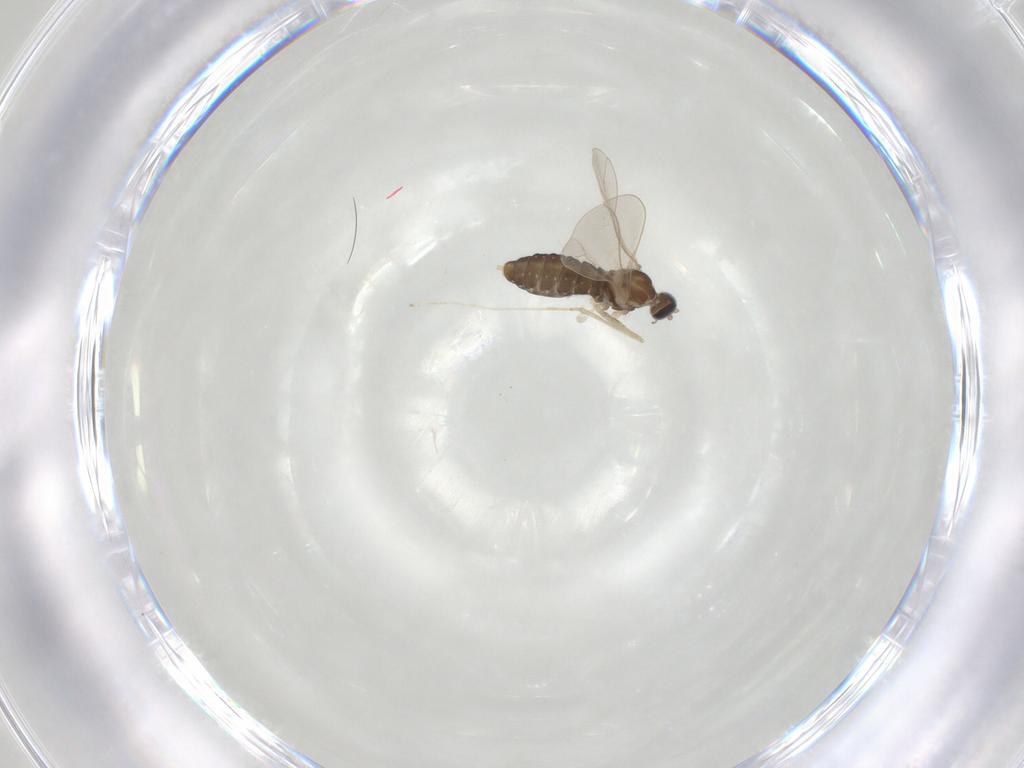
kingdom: Animalia
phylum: Arthropoda
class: Insecta
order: Diptera
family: Cecidomyiidae
